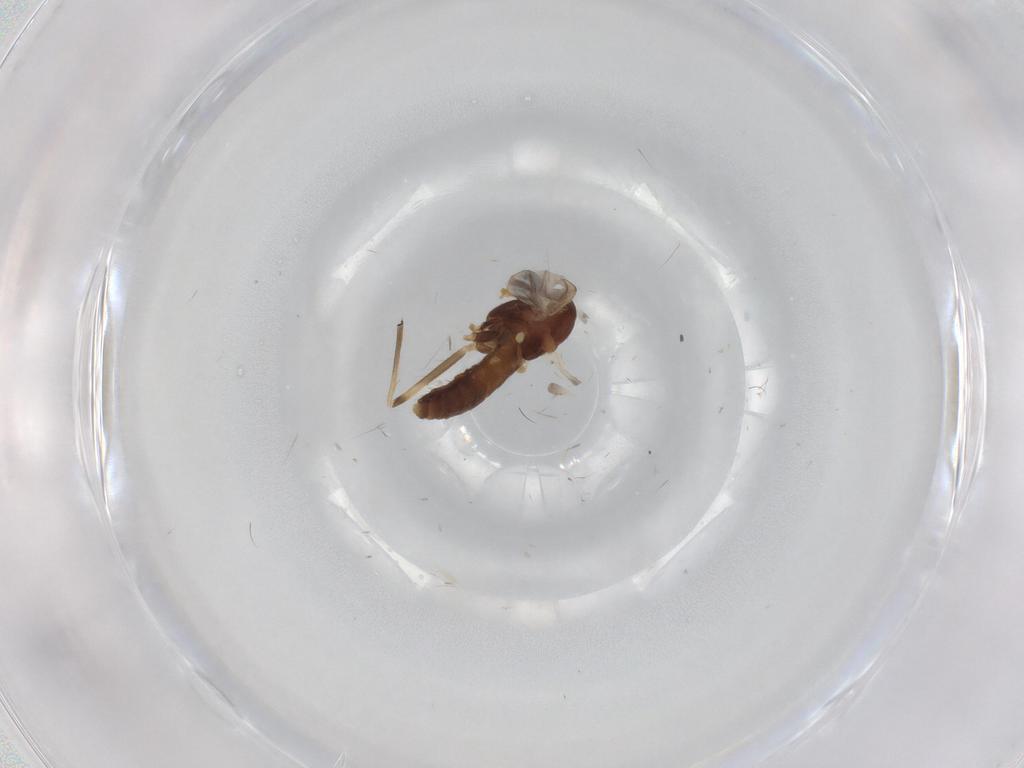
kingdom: Animalia
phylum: Arthropoda
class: Insecta
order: Diptera
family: Chironomidae
